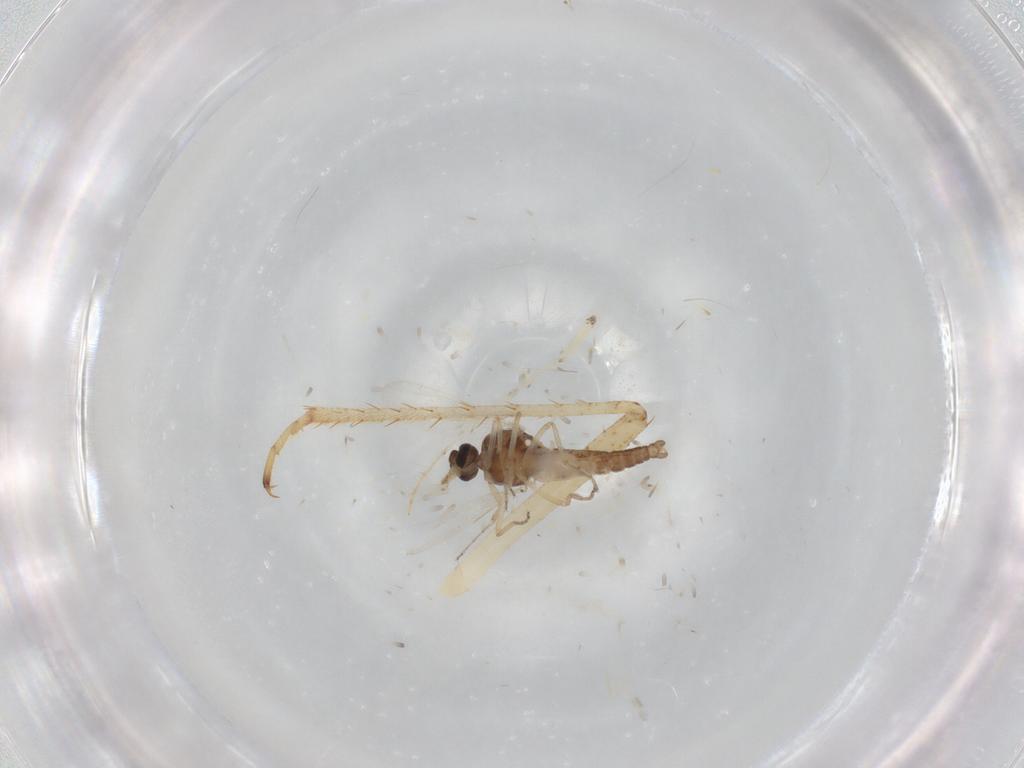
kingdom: Animalia
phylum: Arthropoda
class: Insecta
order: Diptera
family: Ceratopogonidae
